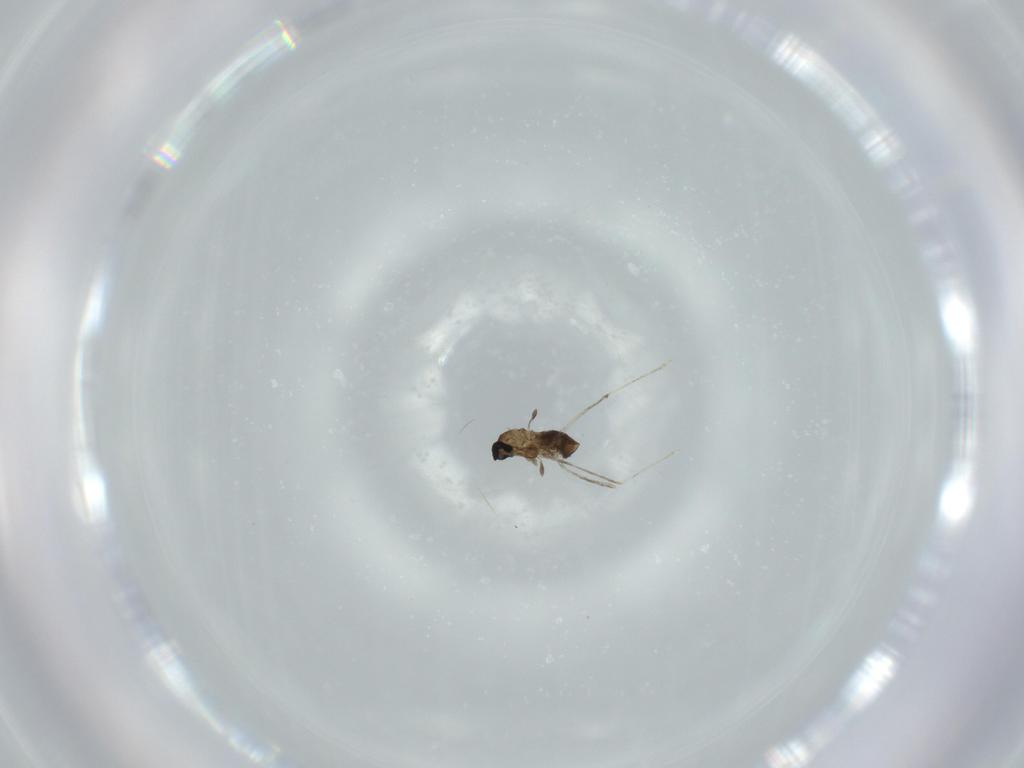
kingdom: Animalia
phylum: Arthropoda
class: Insecta
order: Diptera
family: Cecidomyiidae
